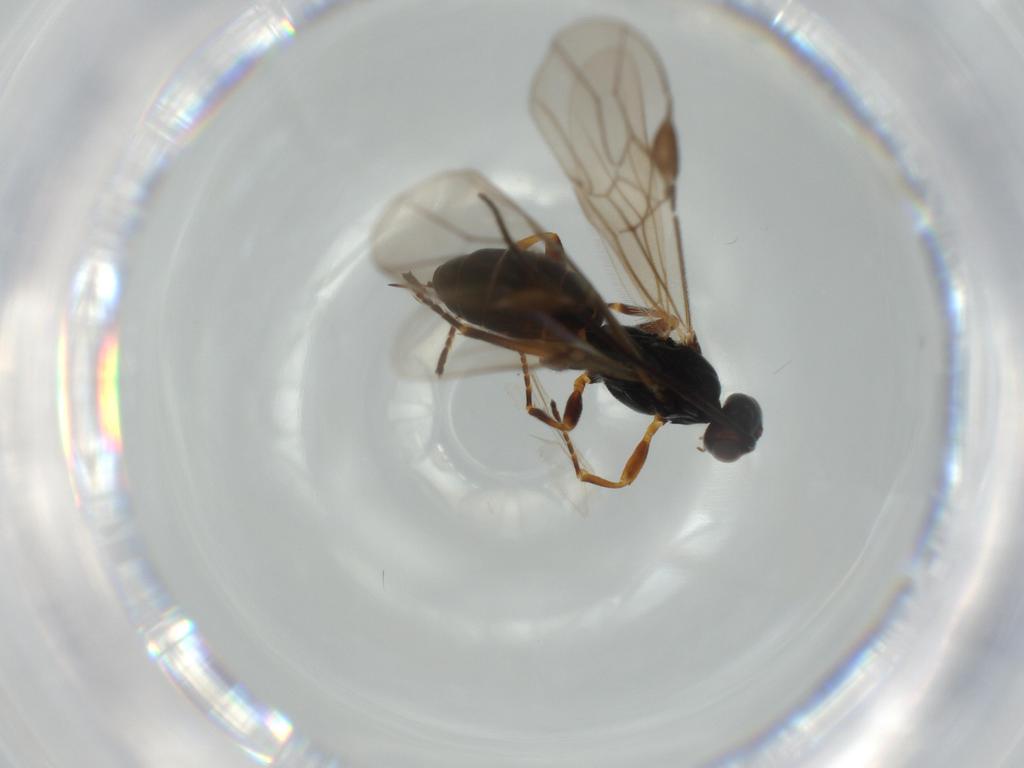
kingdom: Animalia
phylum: Arthropoda
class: Insecta
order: Hymenoptera
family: Braconidae
